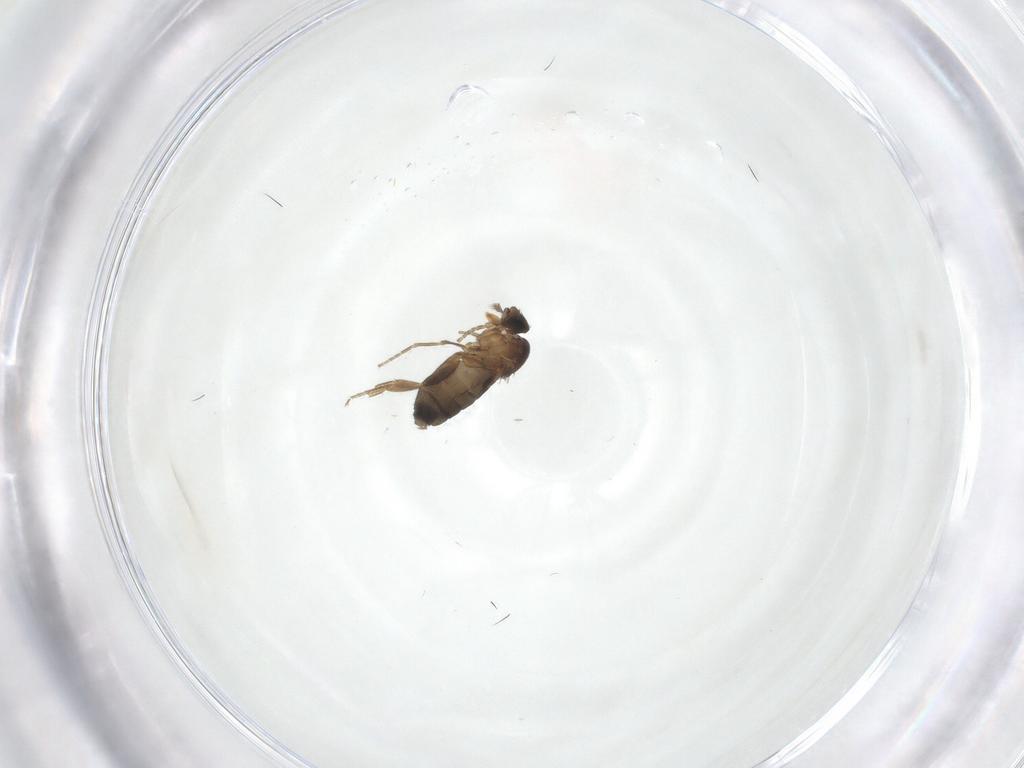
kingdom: Animalia
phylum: Arthropoda
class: Insecta
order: Diptera
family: Phoridae
